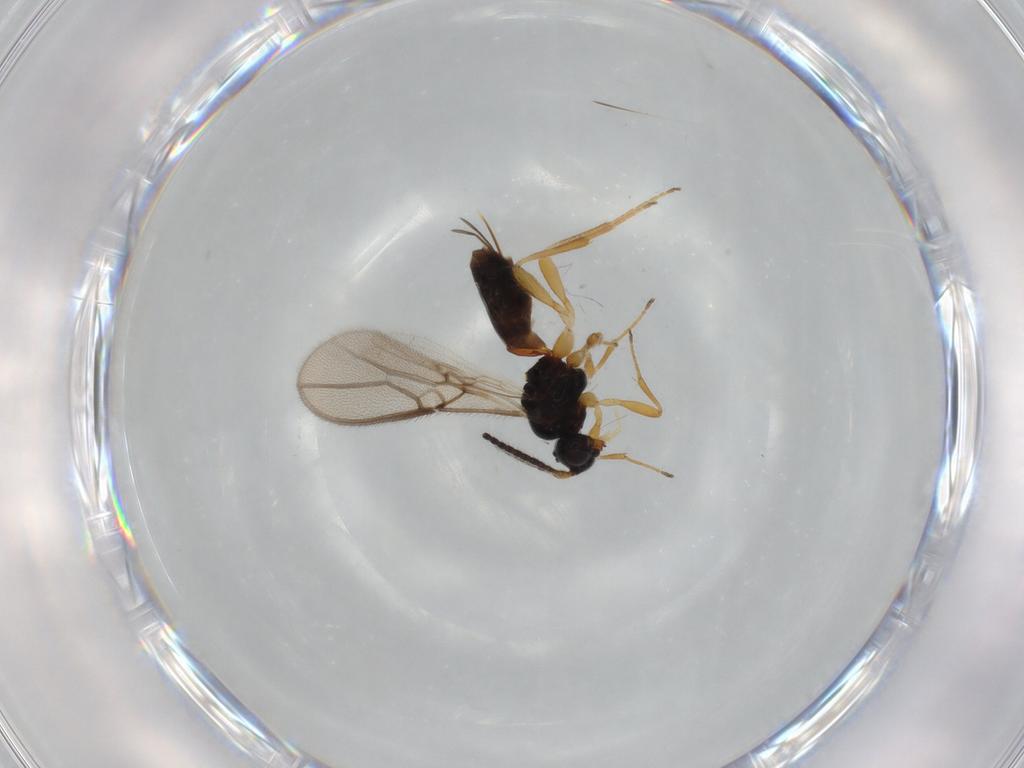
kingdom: Animalia
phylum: Arthropoda
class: Insecta
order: Hymenoptera
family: Braconidae
